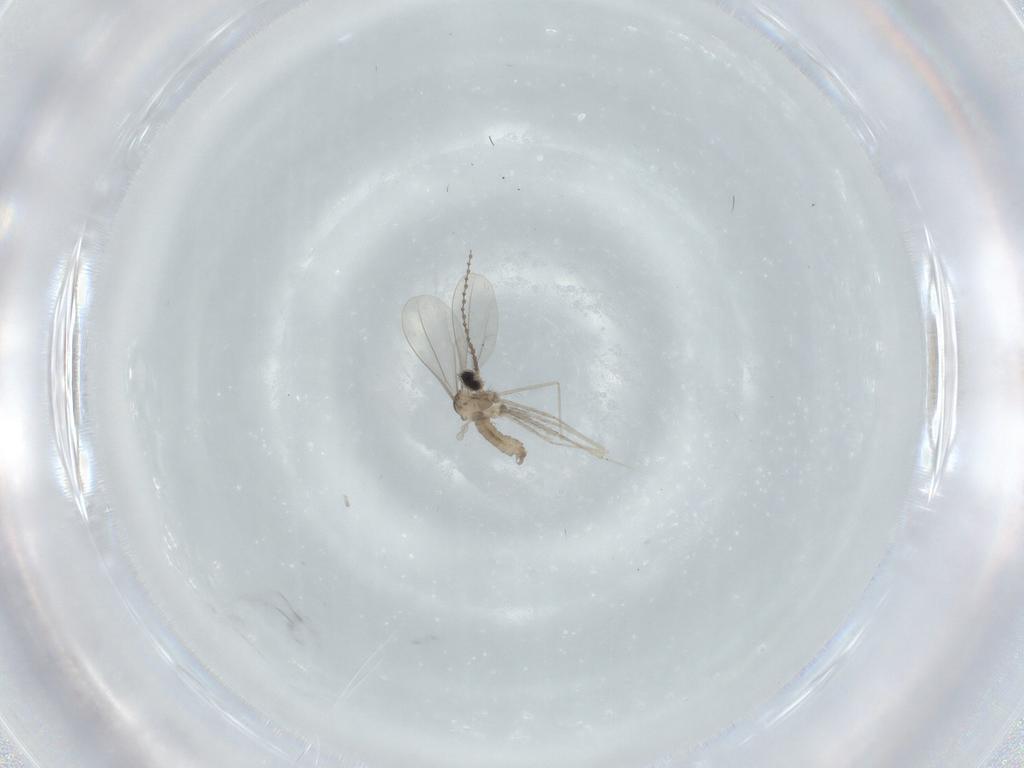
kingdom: Animalia
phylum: Arthropoda
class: Insecta
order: Diptera
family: Cecidomyiidae
